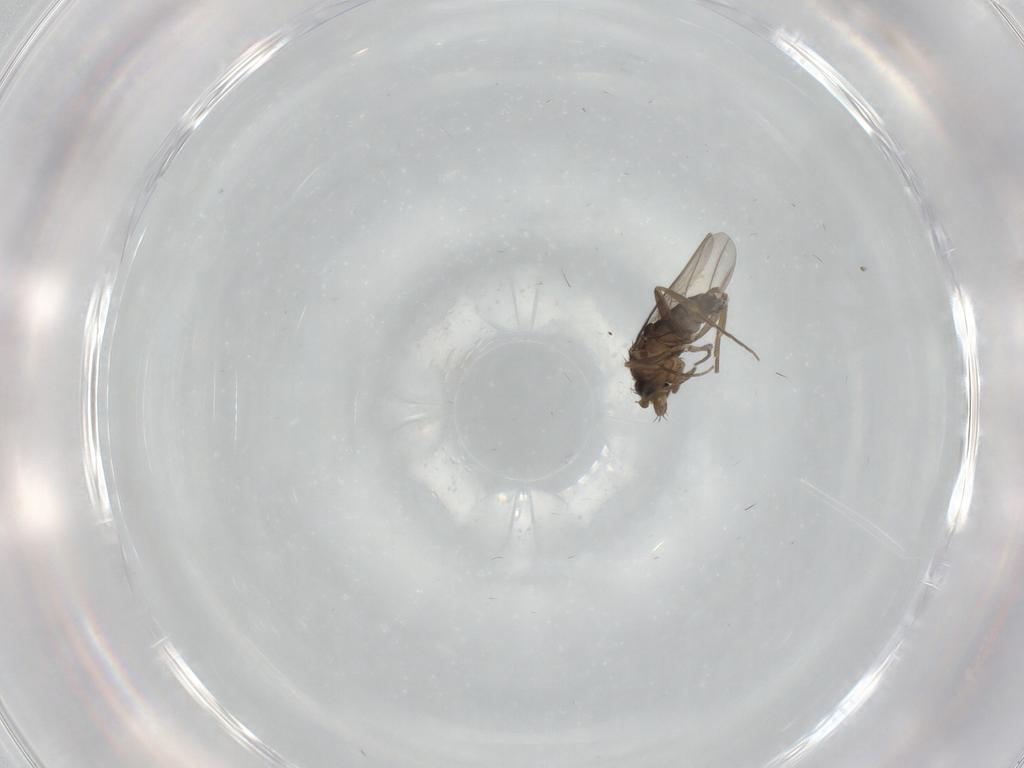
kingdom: Animalia
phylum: Arthropoda
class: Insecta
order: Diptera
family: Phoridae
